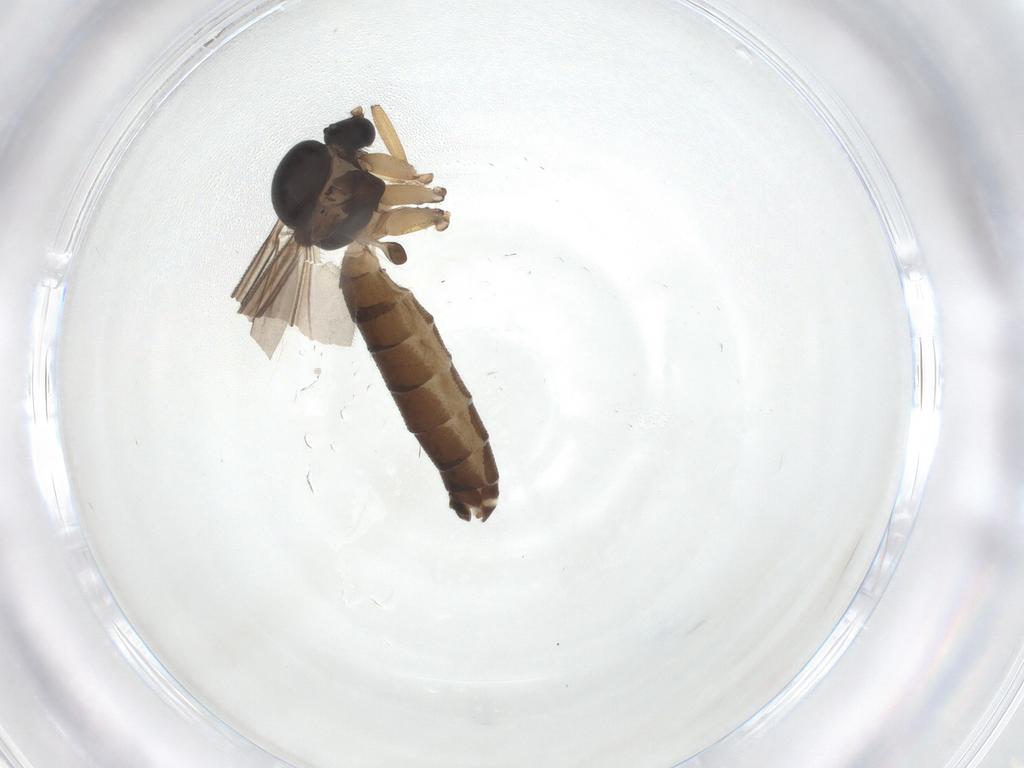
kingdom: Animalia
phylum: Arthropoda
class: Insecta
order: Diptera
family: Mycetophilidae
